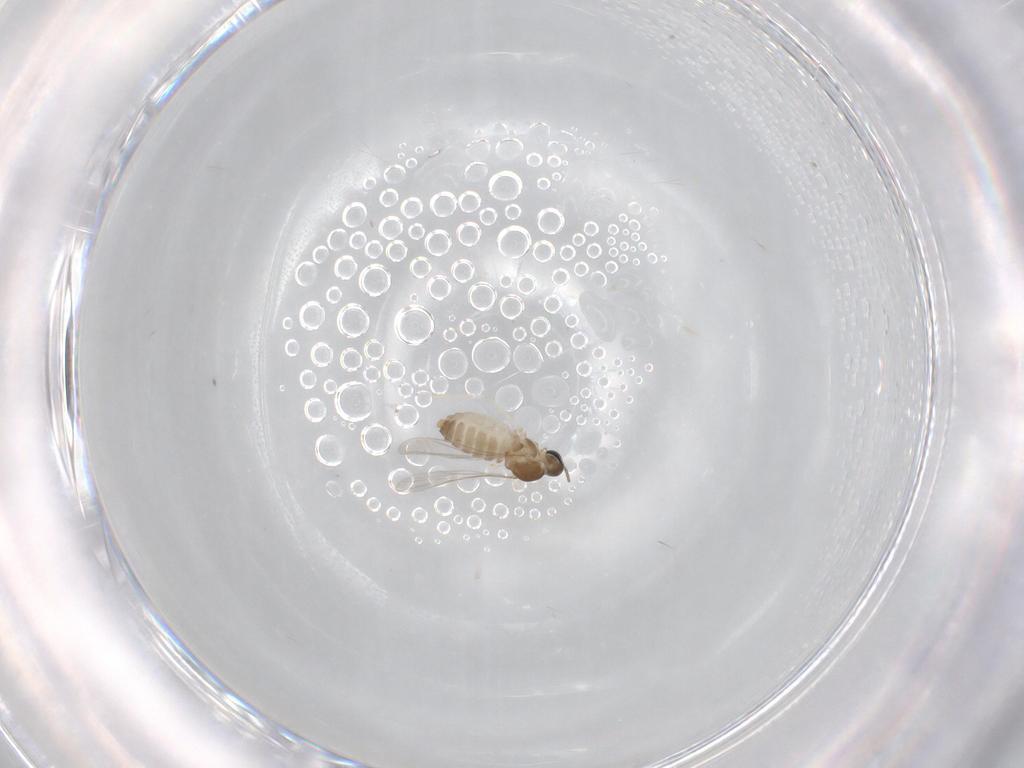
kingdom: Animalia
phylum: Arthropoda
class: Insecta
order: Diptera
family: Cecidomyiidae
